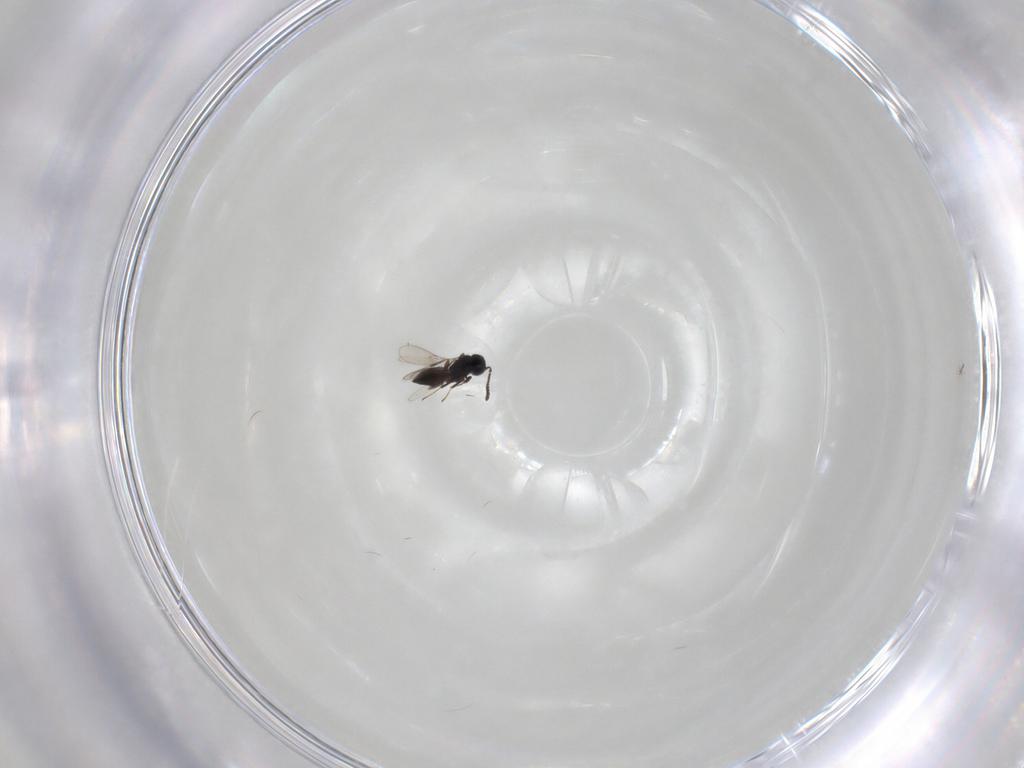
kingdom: Animalia
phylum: Arthropoda
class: Insecta
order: Hymenoptera
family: Scelionidae
